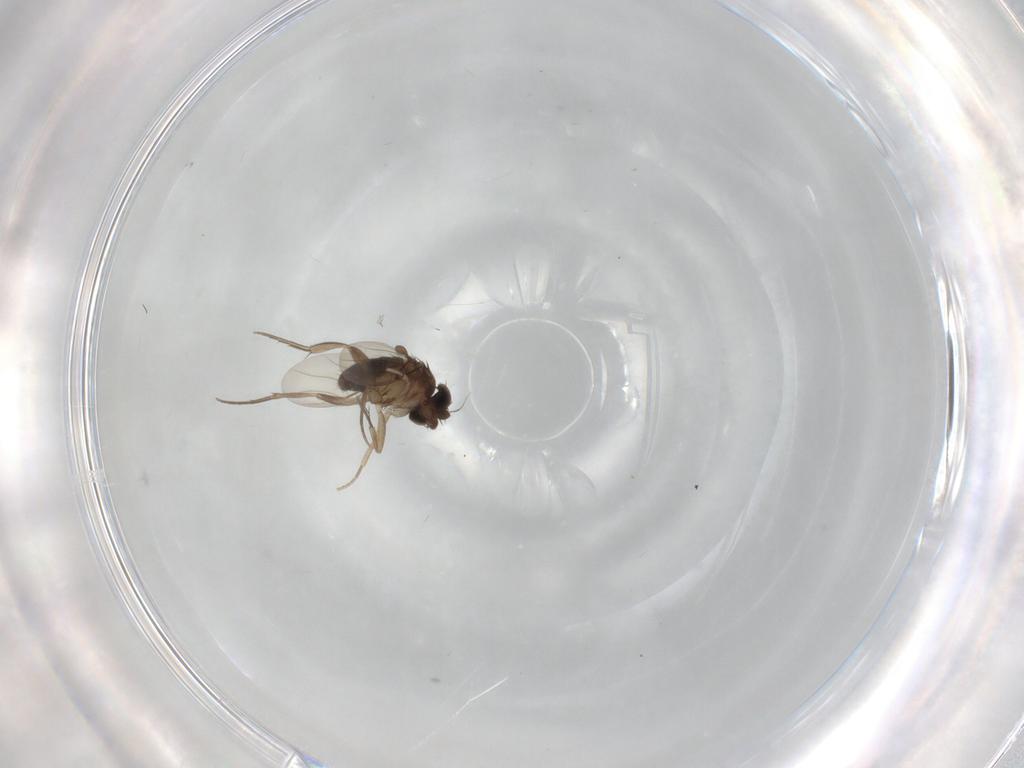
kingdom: Animalia
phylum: Arthropoda
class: Insecta
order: Diptera
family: Phoridae
